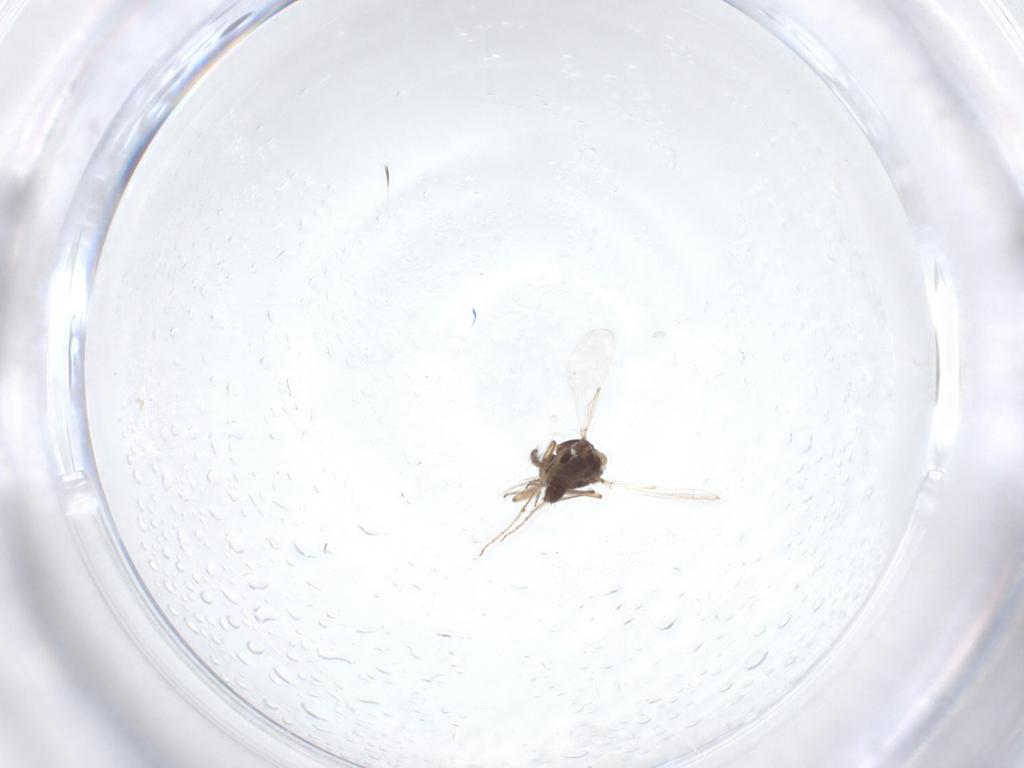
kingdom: Animalia
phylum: Arthropoda
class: Insecta
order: Diptera
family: Ceratopogonidae
